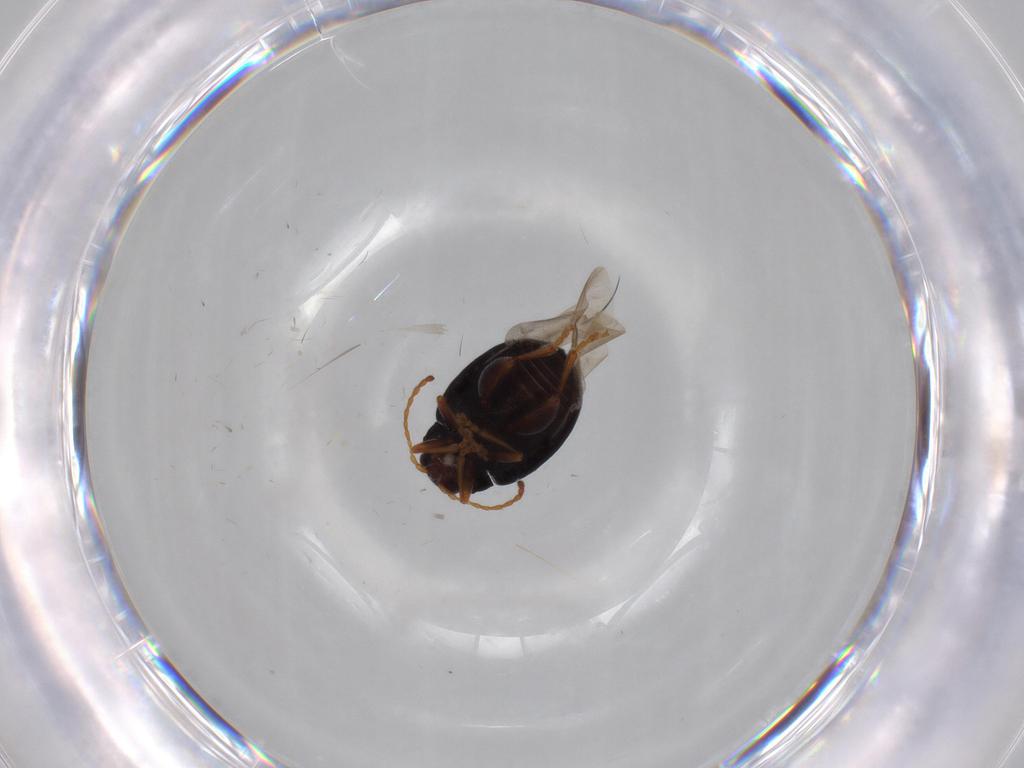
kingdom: Animalia
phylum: Arthropoda
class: Insecta
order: Coleoptera
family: Chrysomelidae
